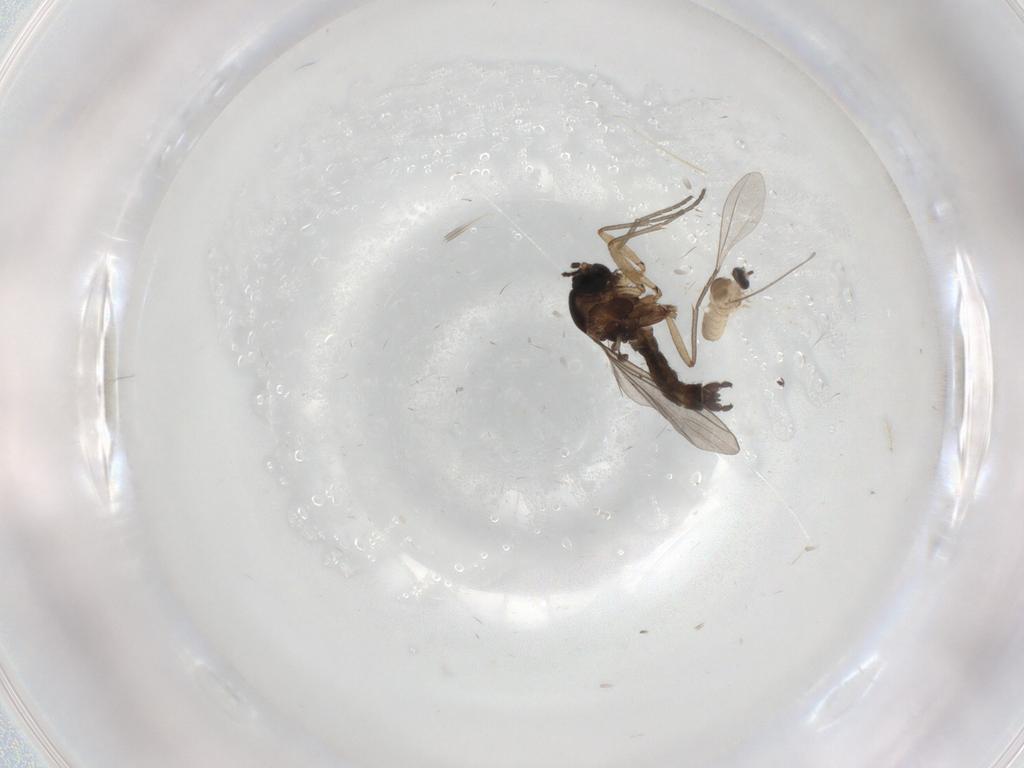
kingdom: Animalia
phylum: Arthropoda
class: Insecta
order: Diptera
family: Sciaridae
